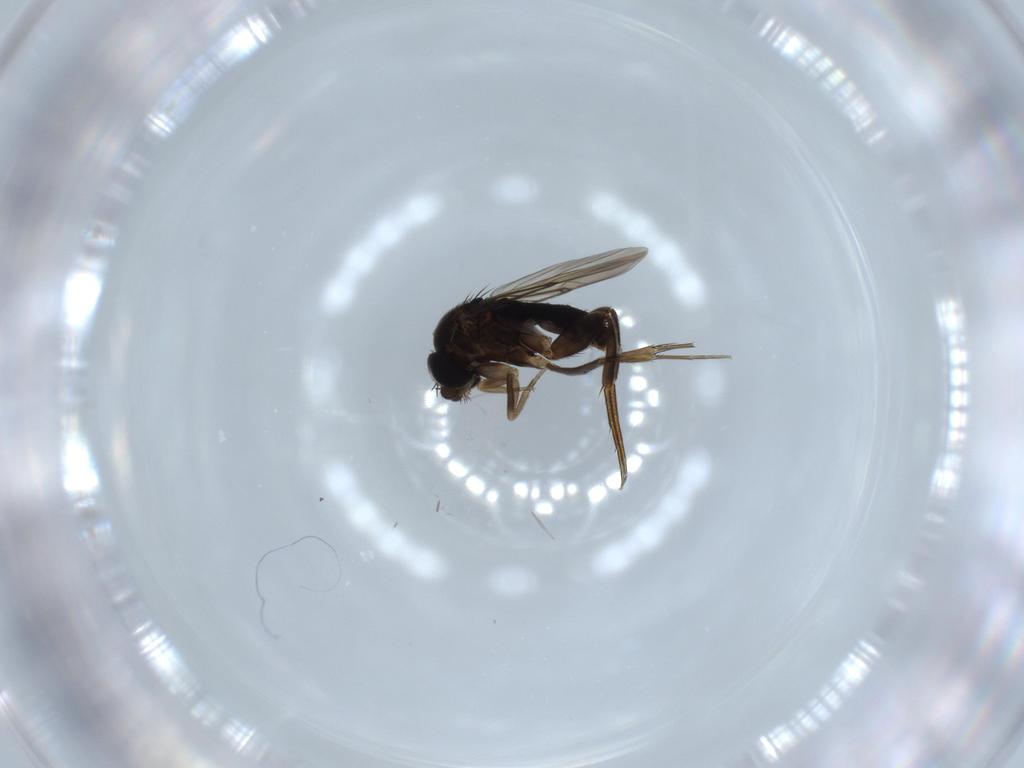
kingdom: Animalia
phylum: Arthropoda
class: Insecta
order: Diptera
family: Phoridae
